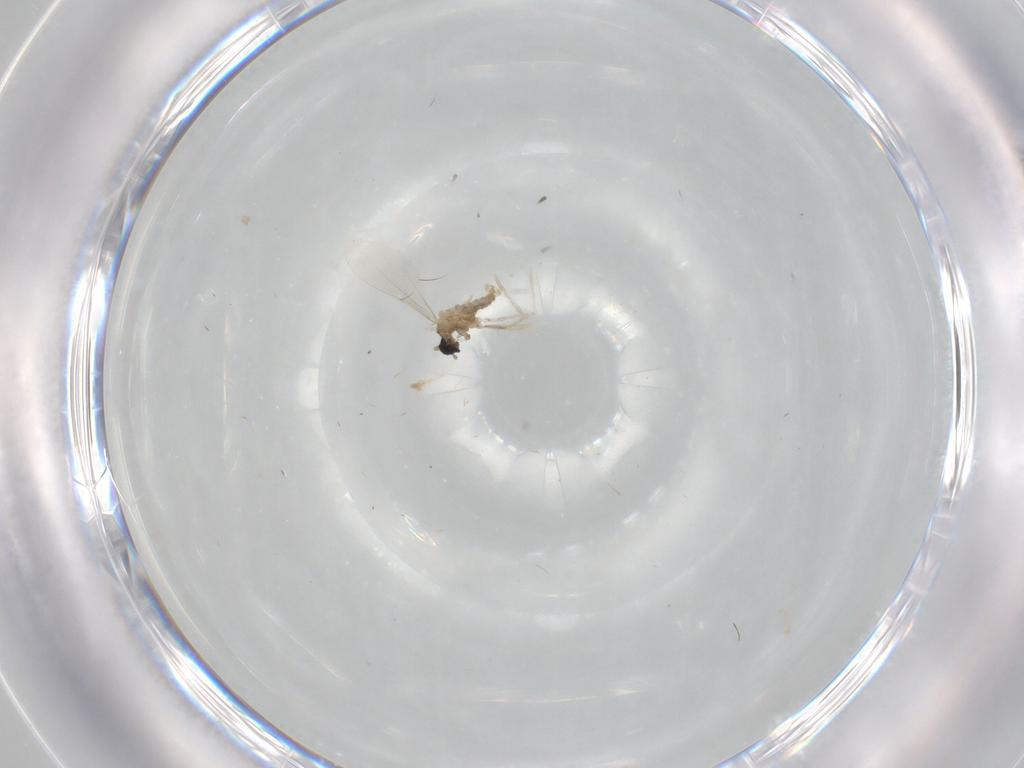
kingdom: Animalia
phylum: Arthropoda
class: Insecta
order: Diptera
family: Cecidomyiidae
